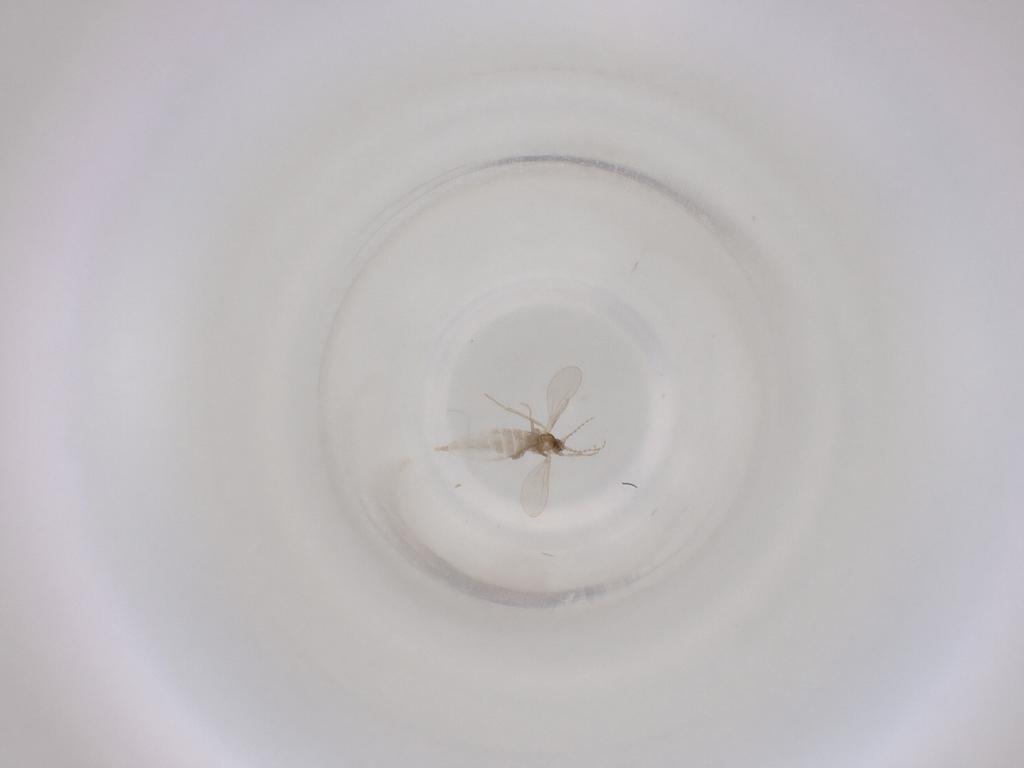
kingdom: Animalia
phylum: Arthropoda
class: Insecta
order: Diptera
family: Cecidomyiidae
